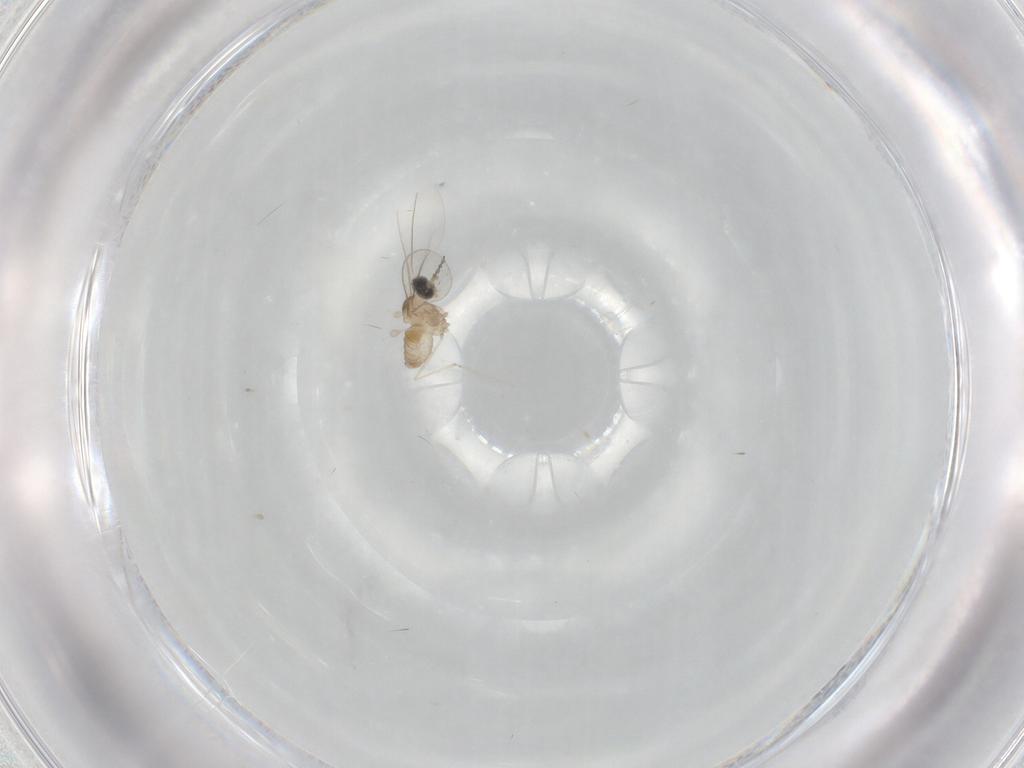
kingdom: Animalia
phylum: Arthropoda
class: Insecta
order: Diptera
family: Cecidomyiidae
